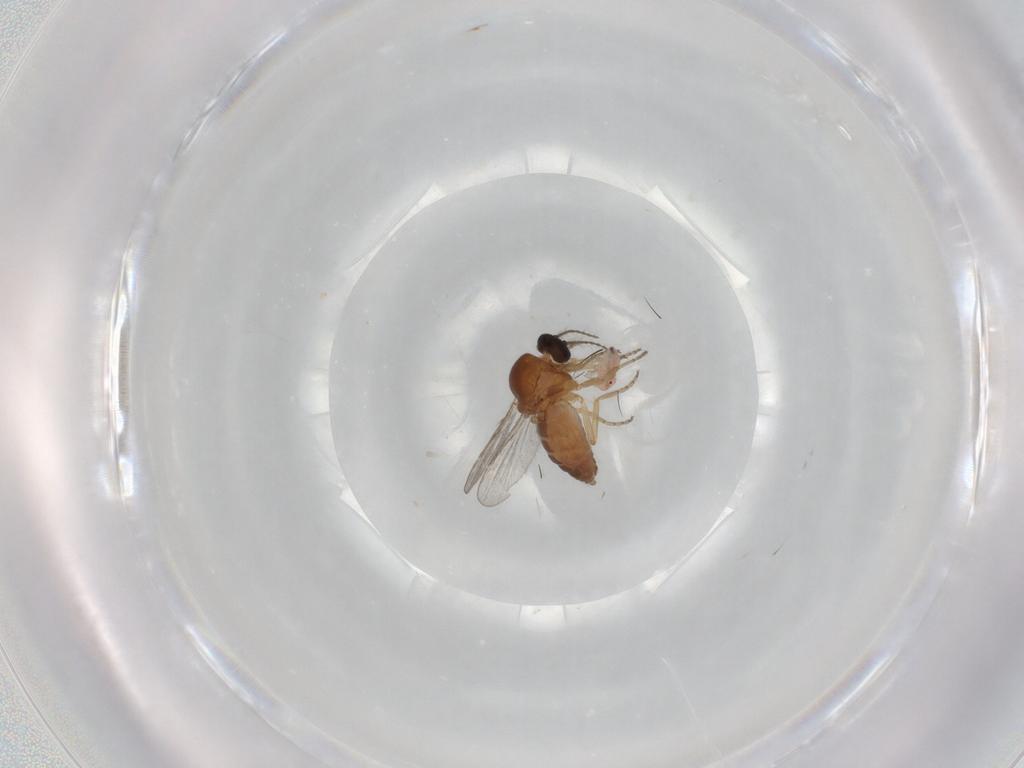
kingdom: Animalia
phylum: Arthropoda
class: Insecta
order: Diptera
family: Ceratopogonidae
